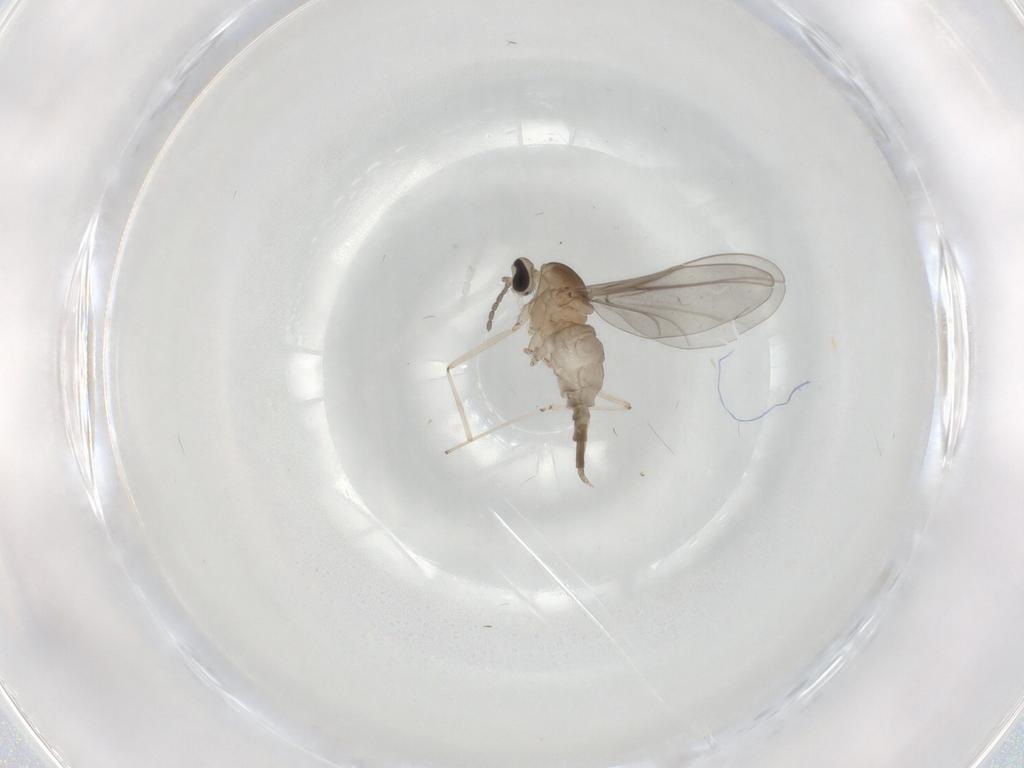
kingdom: Animalia
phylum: Arthropoda
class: Insecta
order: Diptera
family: Cecidomyiidae
